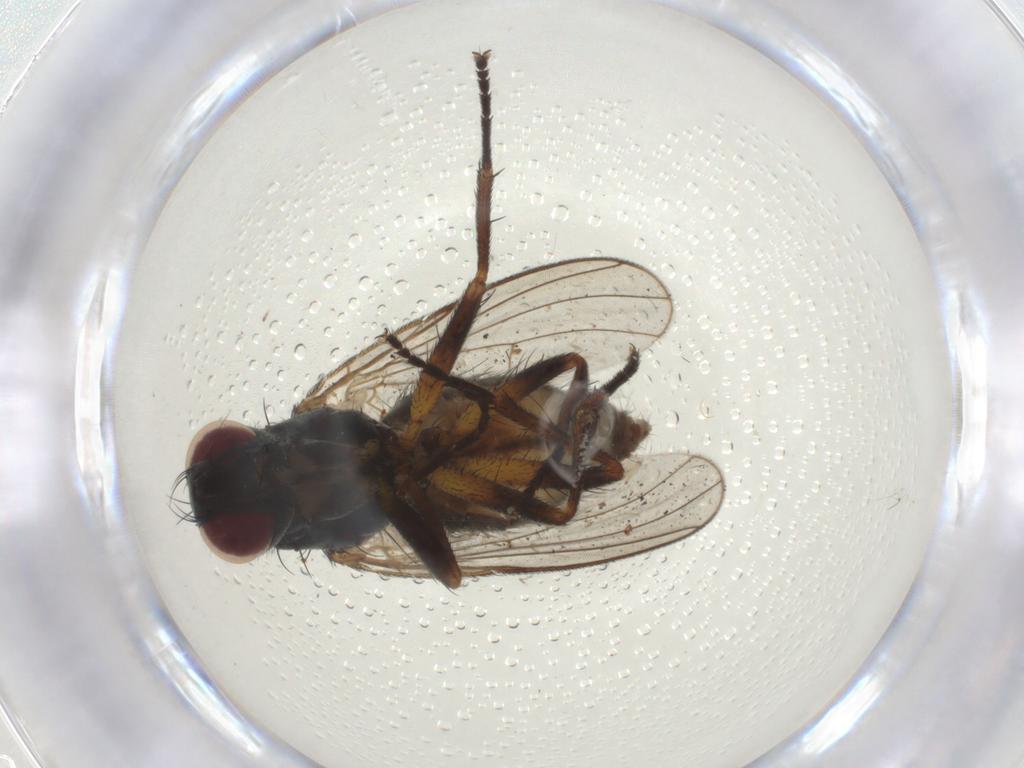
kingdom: Animalia
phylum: Arthropoda
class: Insecta
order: Diptera
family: Muscidae
